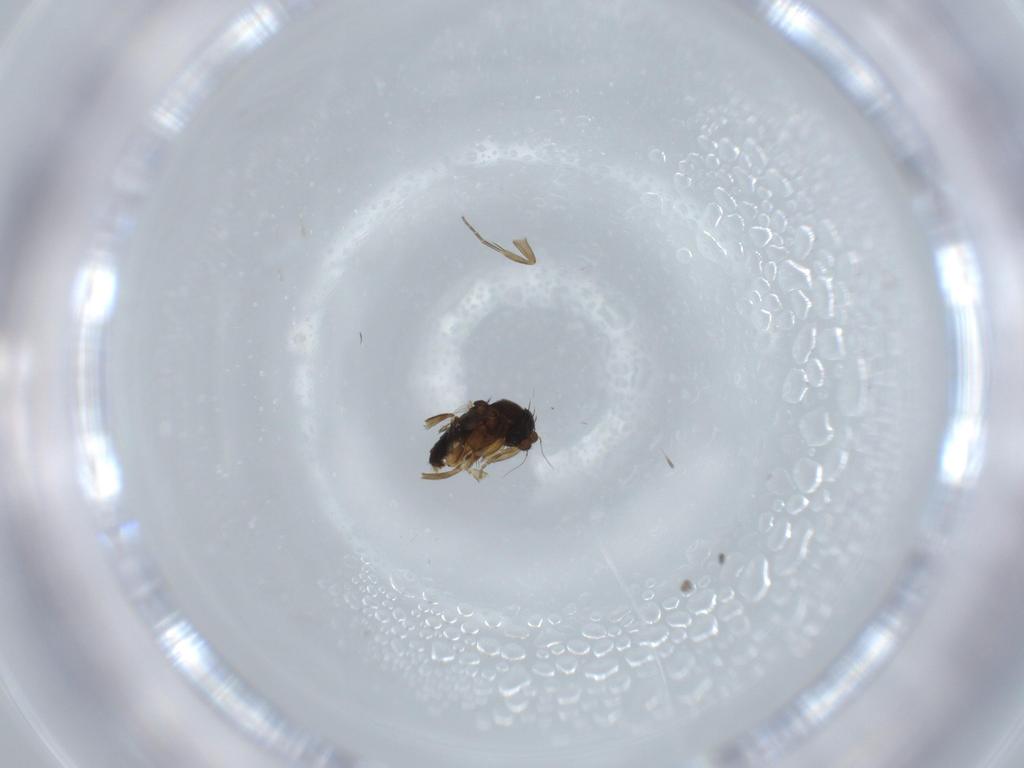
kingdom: Animalia
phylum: Arthropoda
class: Insecta
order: Diptera
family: Phoridae
